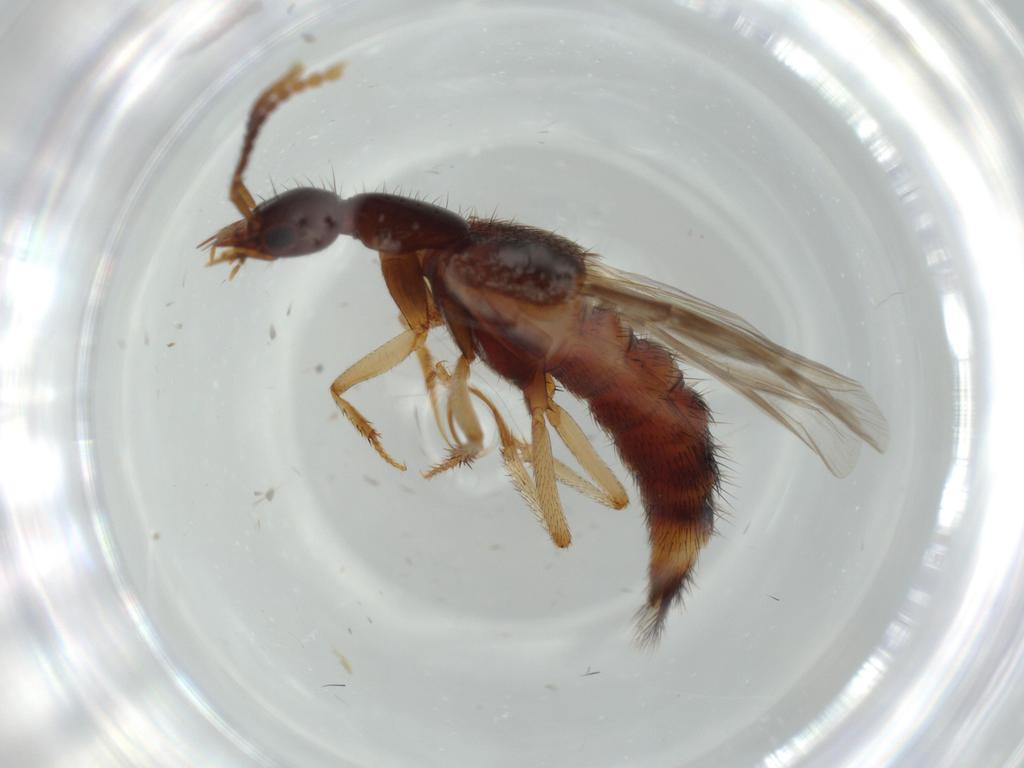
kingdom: Animalia
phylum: Arthropoda
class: Insecta
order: Coleoptera
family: Staphylinidae
